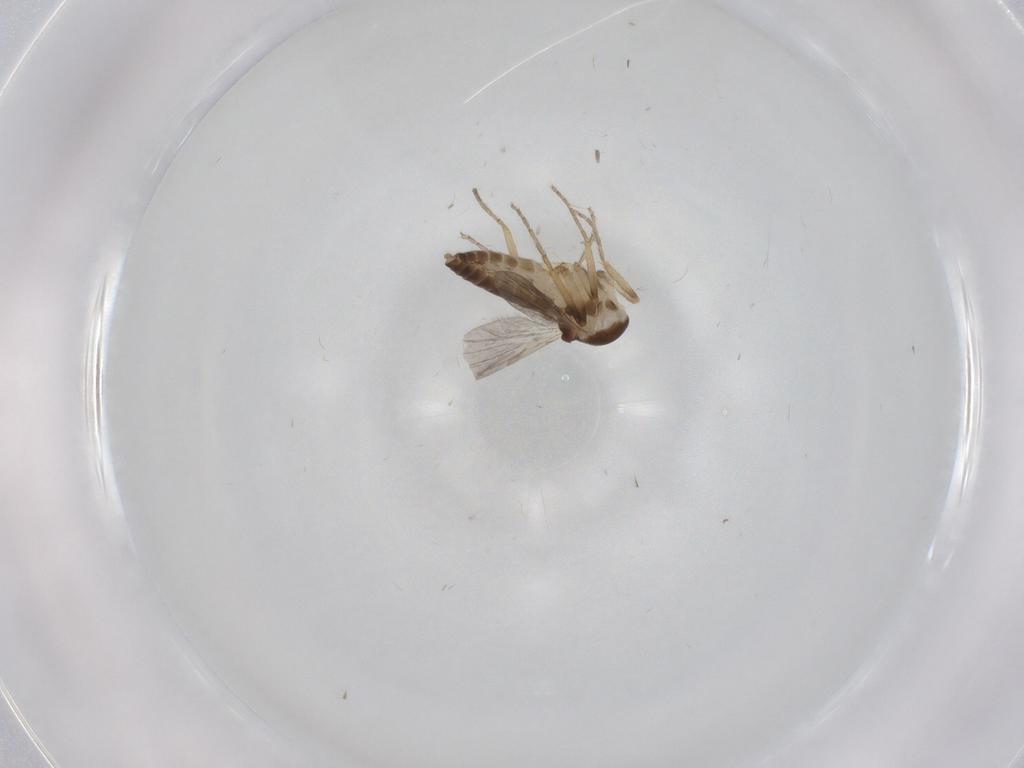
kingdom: Animalia
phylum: Arthropoda
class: Insecta
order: Diptera
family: Ceratopogonidae
